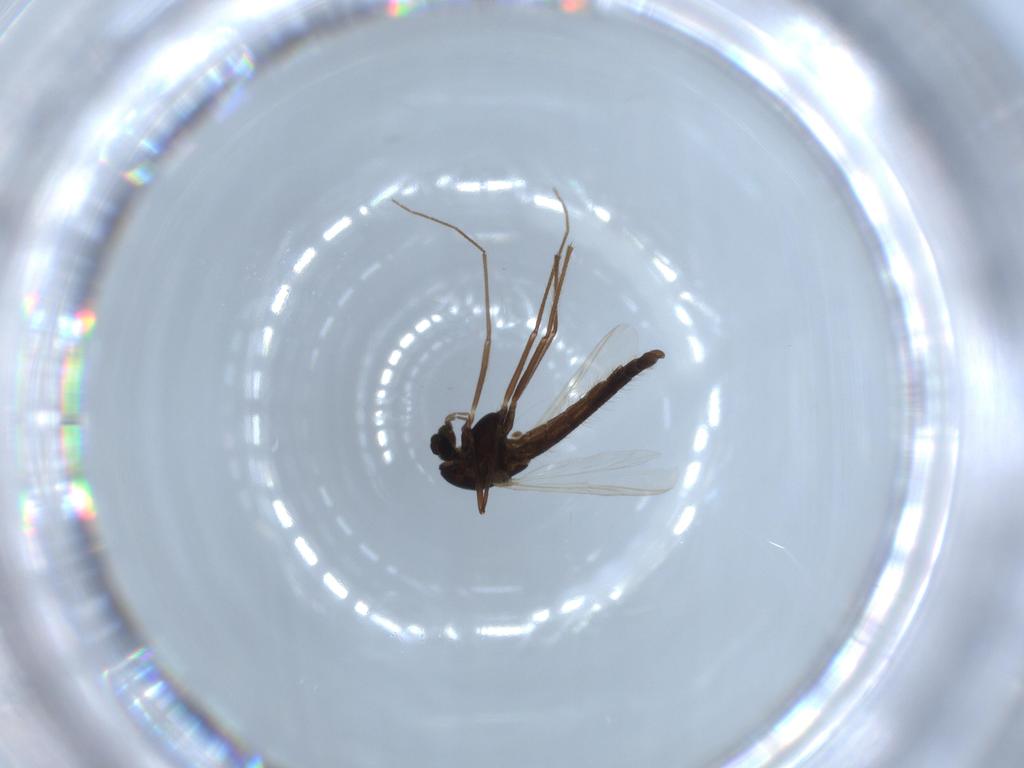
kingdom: Animalia
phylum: Arthropoda
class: Insecta
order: Diptera
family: Chironomidae
